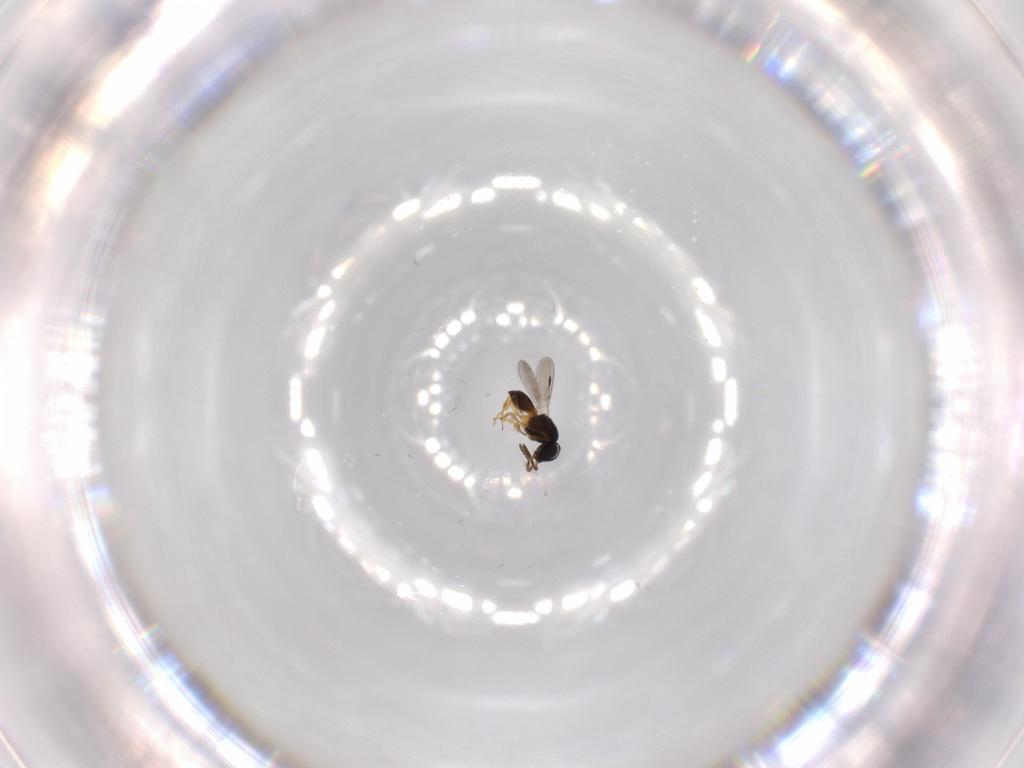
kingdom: Animalia
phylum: Arthropoda
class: Insecta
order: Hymenoptera
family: Scelionidae
